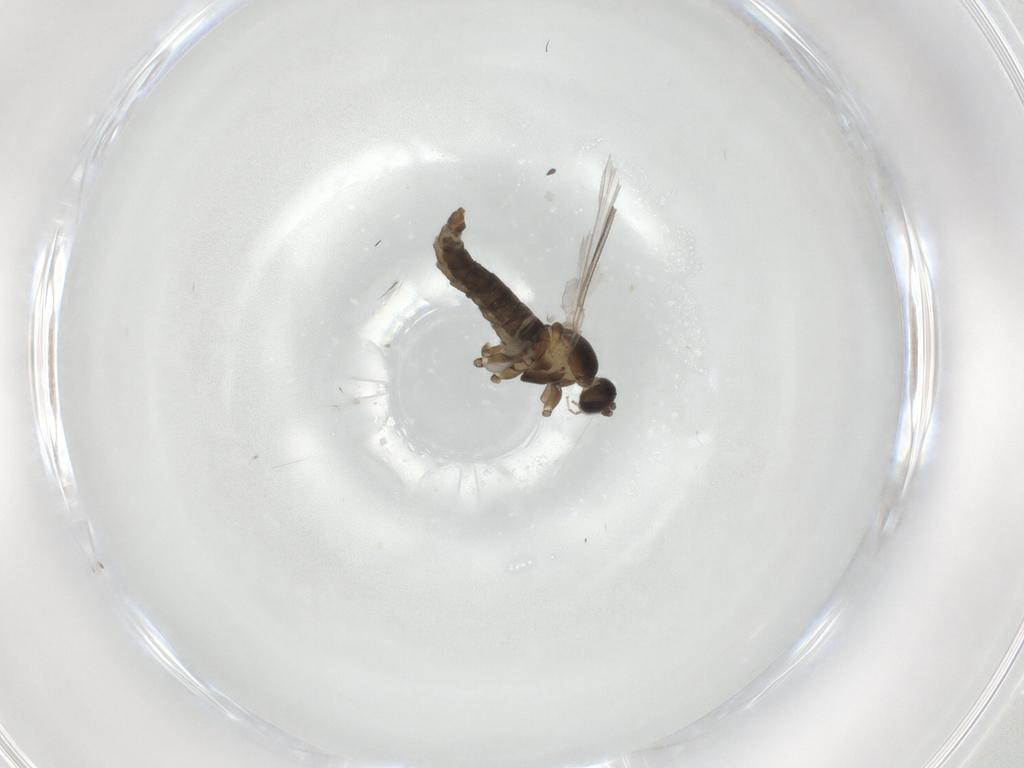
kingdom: Animalia
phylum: Arthropoda
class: Insecta
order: Diptera
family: Cecidomyiidae
